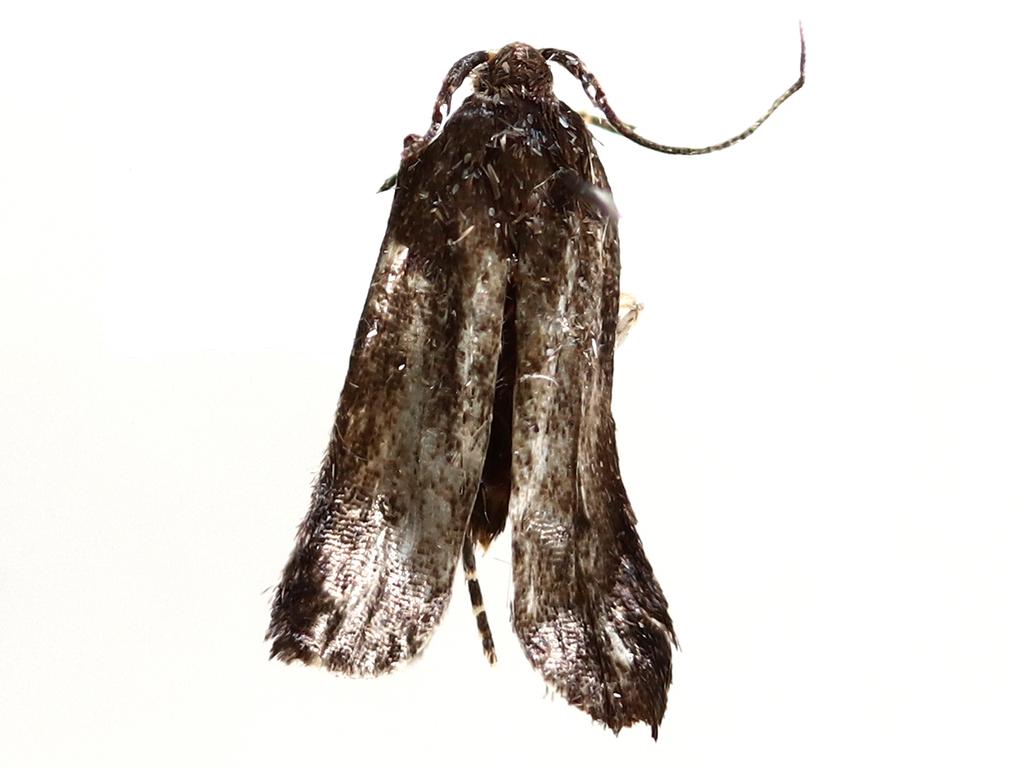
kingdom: Animalia
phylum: Arthropoda
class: Insecta
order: Diptera
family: Chironomidae
